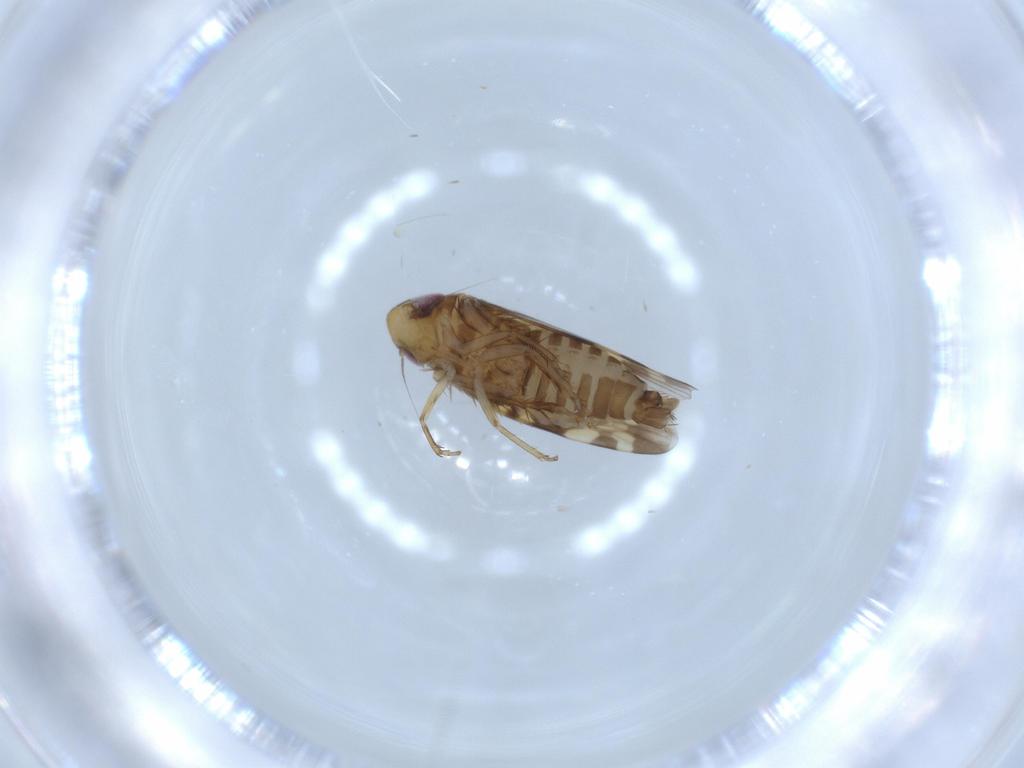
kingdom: Animalia
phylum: Arthropoda
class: Insecta
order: Hemiptera
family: Cicadellidae
